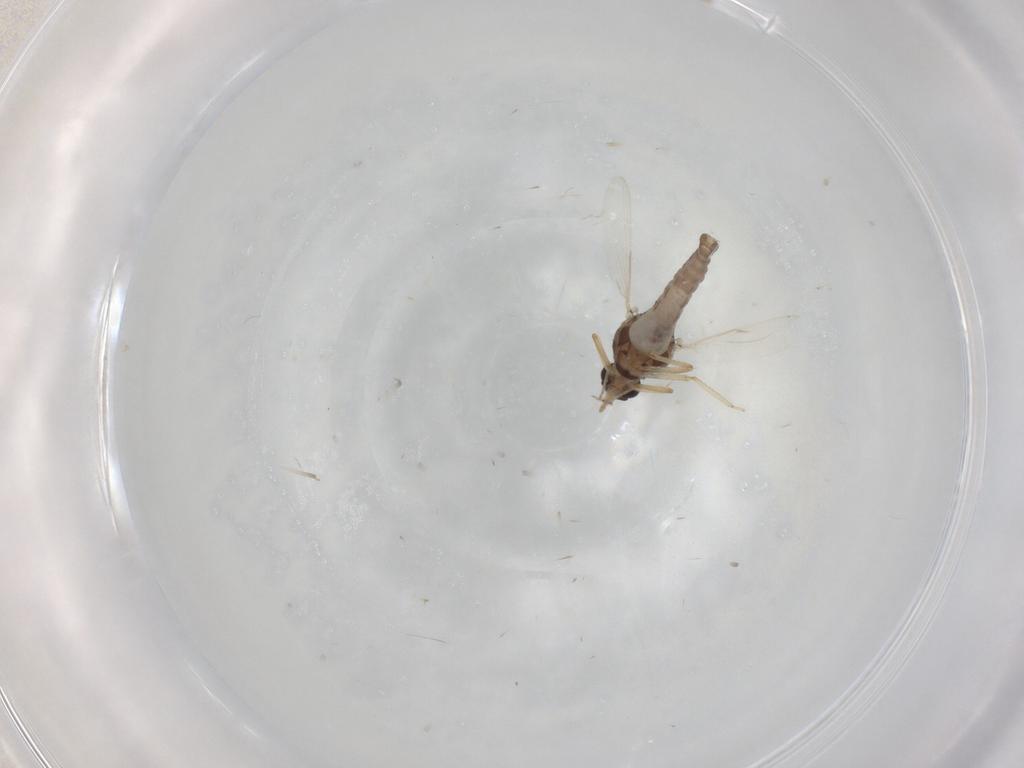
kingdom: Animalia
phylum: Arthropoda
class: Insecta
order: Diptera
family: Ceratopogonidae
